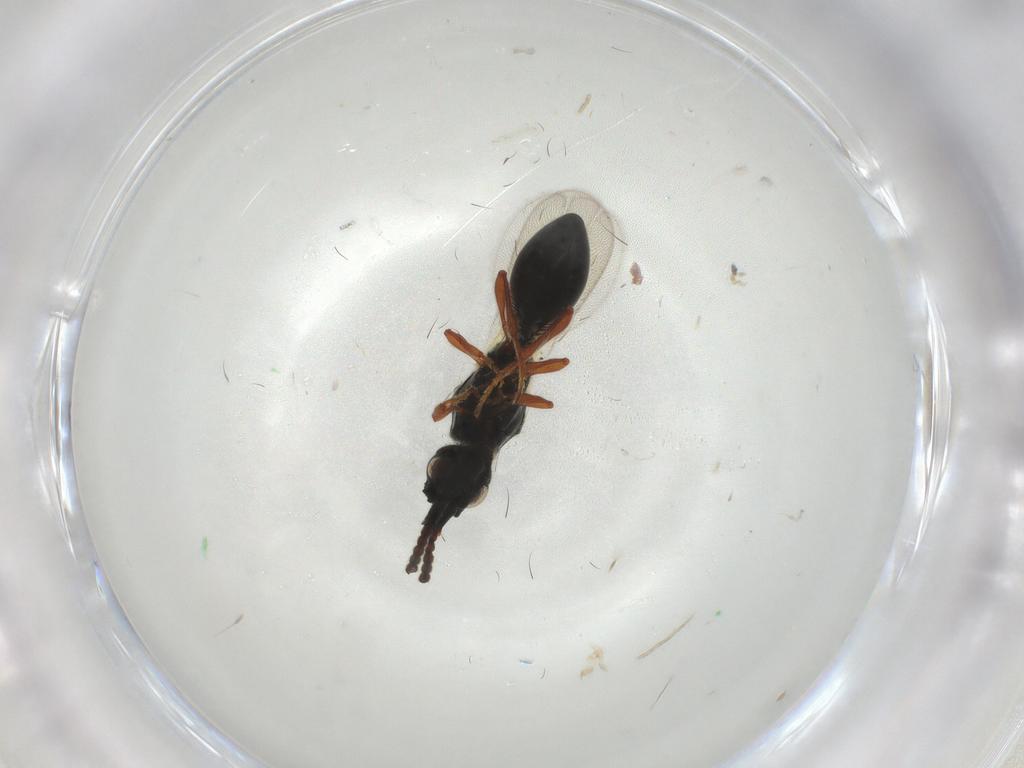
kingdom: Animalia
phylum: Arthropoda
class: Insecta
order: Hymenoptera
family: Diapriidae
